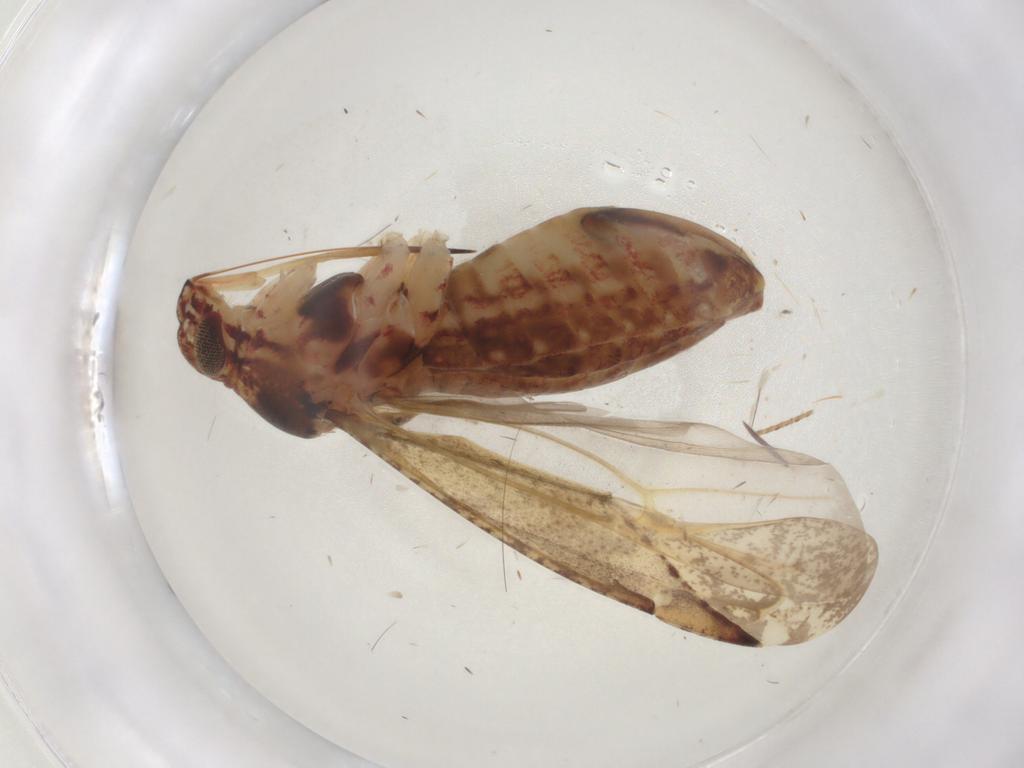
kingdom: Animalia
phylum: Arthropoda
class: Insecta
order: Hemiptera
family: Miridae
